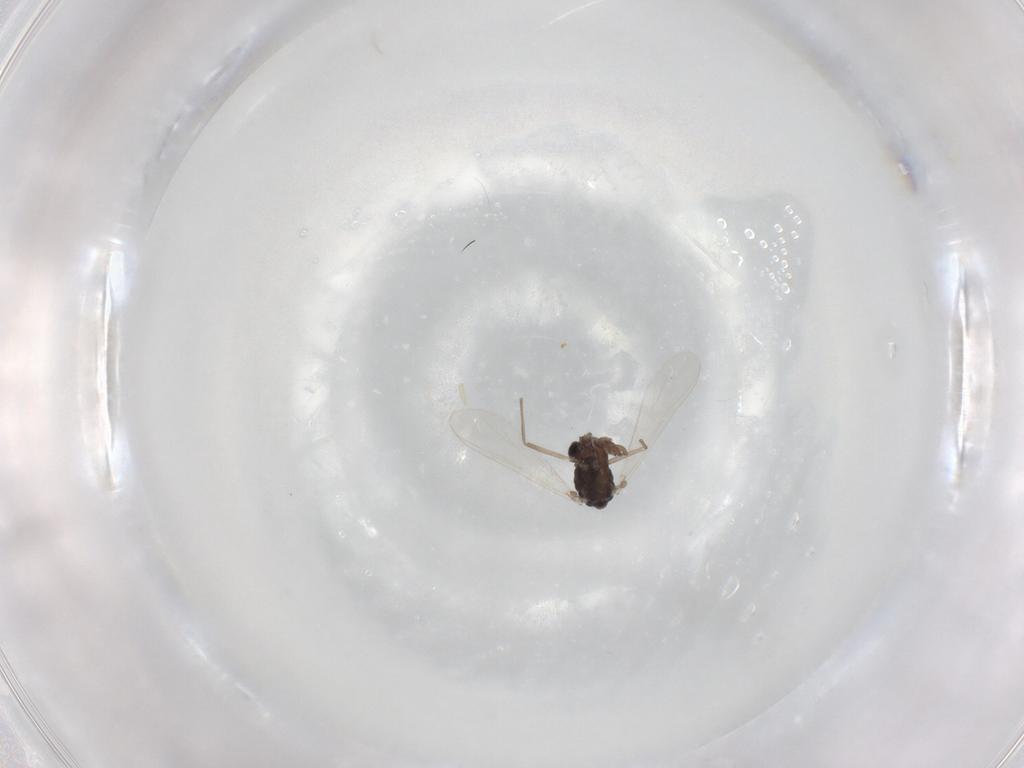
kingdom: Animalia
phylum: Arthropoda
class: Insecta
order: Diptera
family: Chironomidae
